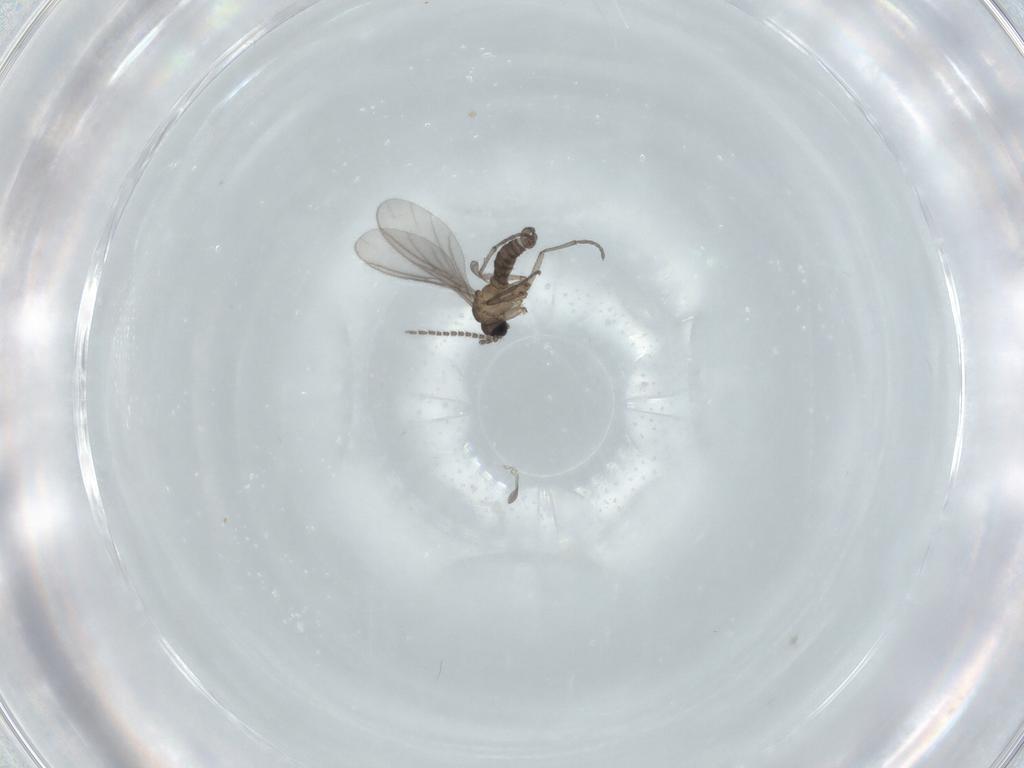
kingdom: Animalia
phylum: Arthropoda
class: Insecta
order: Diptera
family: Sciaridae
